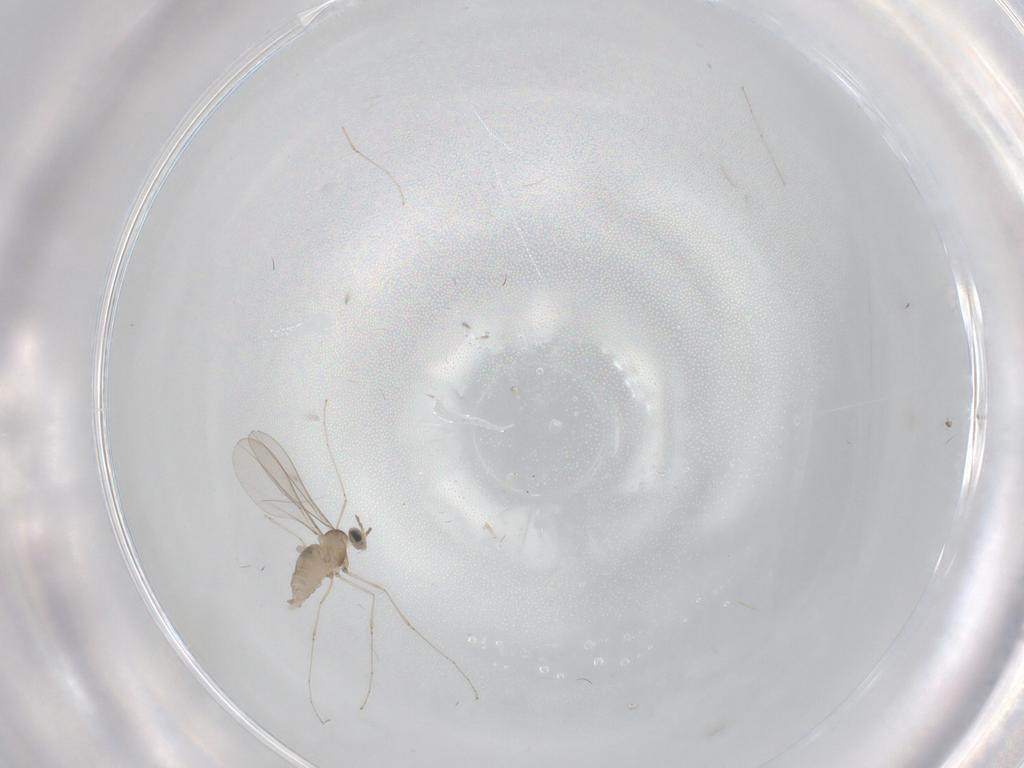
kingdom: Animalia
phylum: Arthropoda
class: Insecta
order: Diptera
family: Cecidomyiidae
